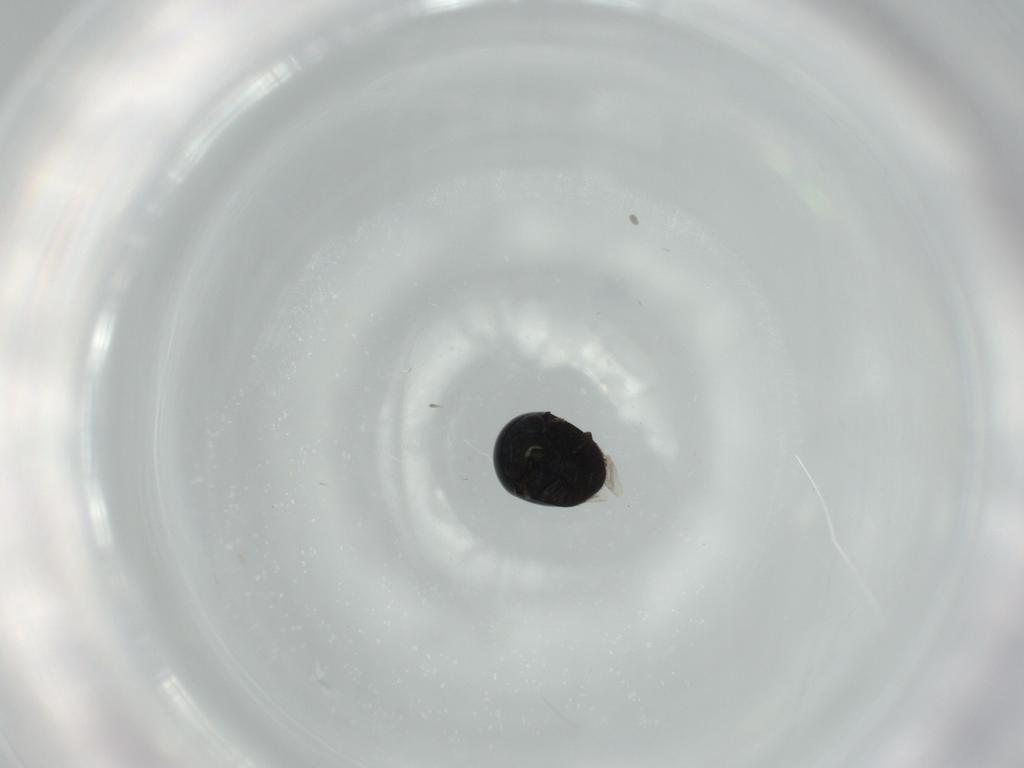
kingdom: Animalia
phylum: Arthropoda
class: Insecta
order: Coleoptera
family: Cybocephalidae
